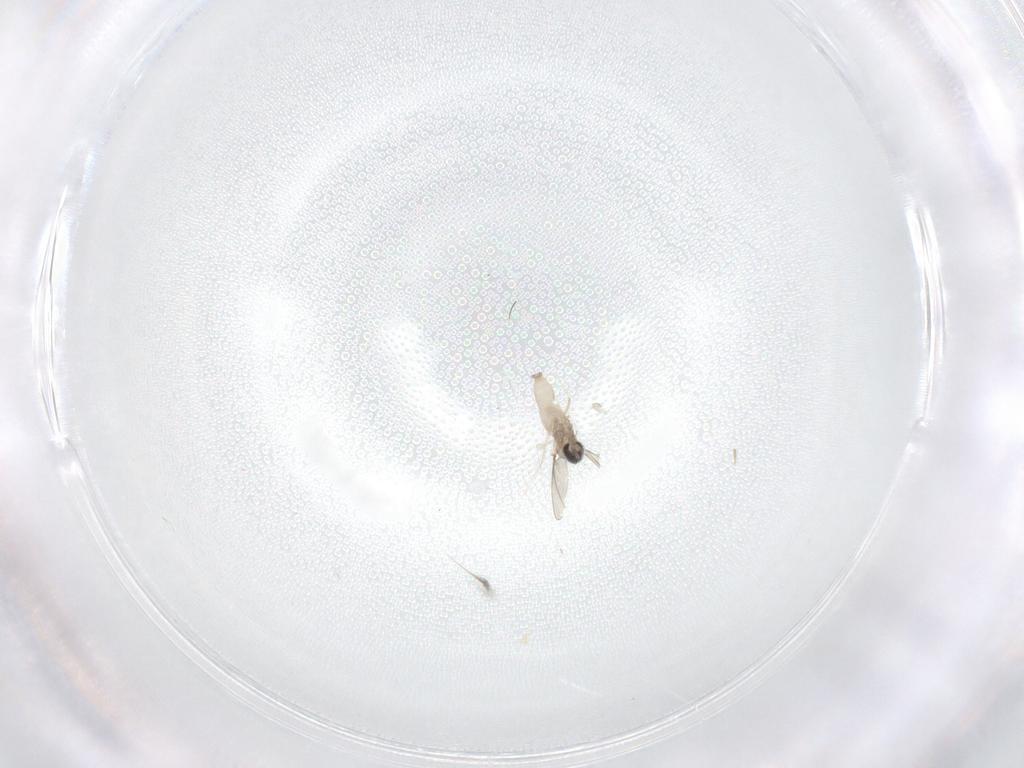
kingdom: Animalia
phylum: Arthropoda
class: Insecta
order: Diptera
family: Cecidomyiidae
